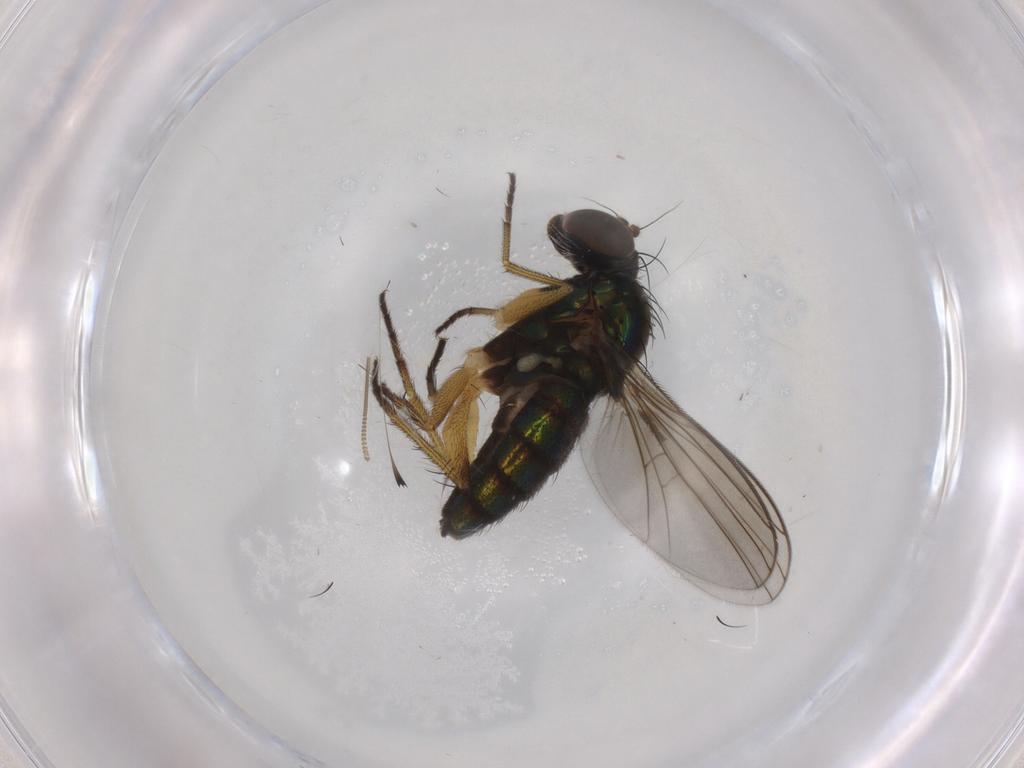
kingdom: Animalia
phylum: Arthropoda
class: Insecta
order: Diptera
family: Dolichopodidae
